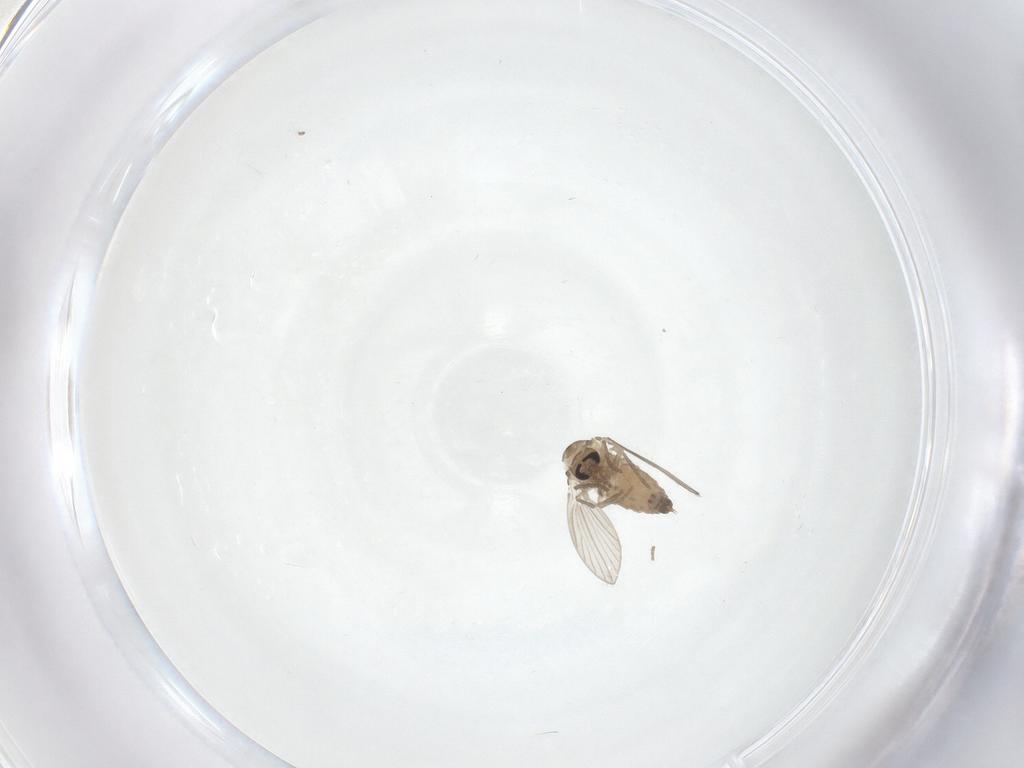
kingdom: Animalia
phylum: Arthropoda
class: Insecta
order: Diptera
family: Psychodidae
